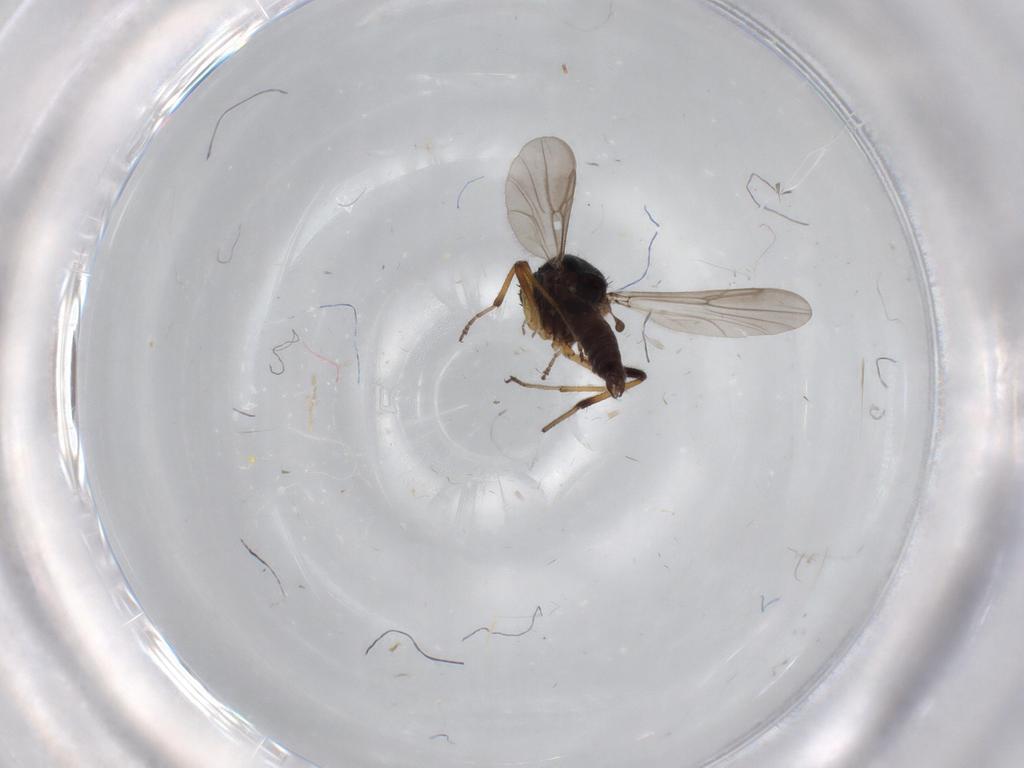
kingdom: Animalia
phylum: Arthropoda
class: Insecta
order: Diptera
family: Ceratopogonidae
